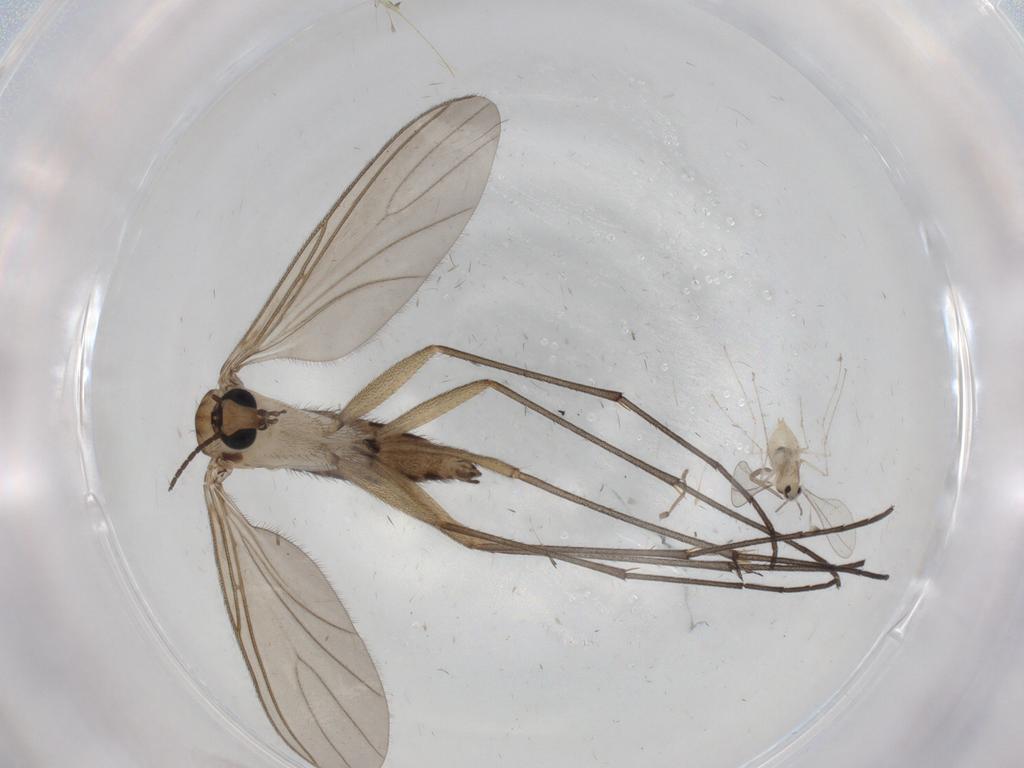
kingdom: Animalia
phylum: Arthropoda
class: Insecta
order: Diptera
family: Cecidomyiidae
